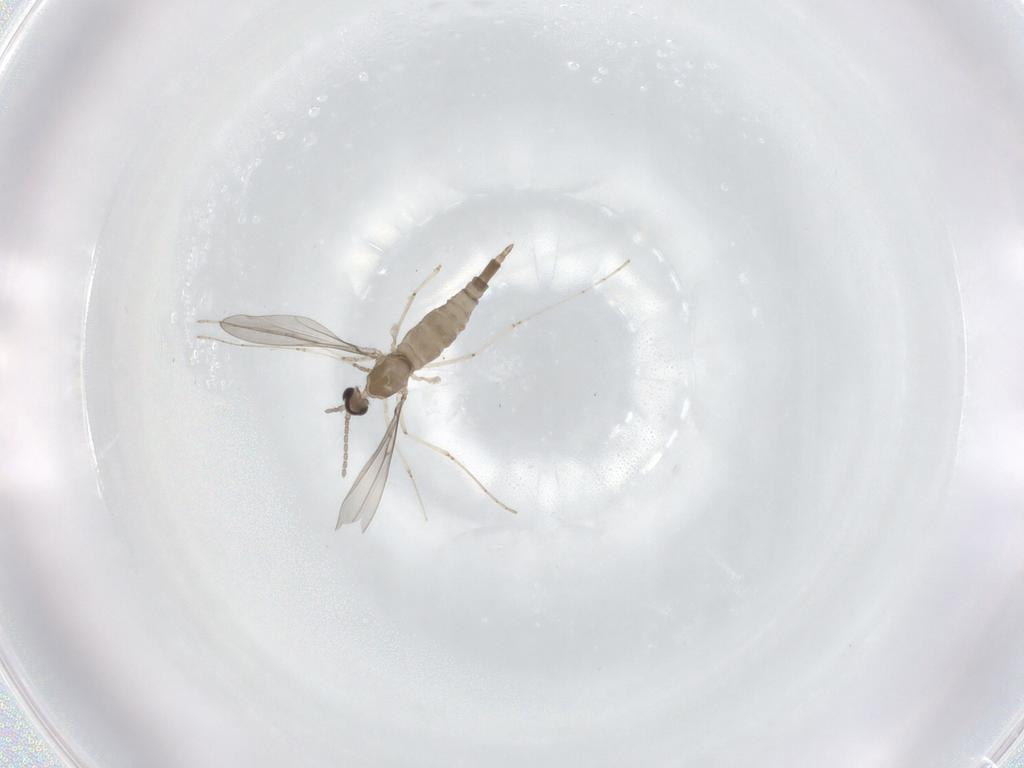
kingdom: Animalia
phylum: Arthropoda
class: Insecta
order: Diptera
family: Cecidomyiidae
